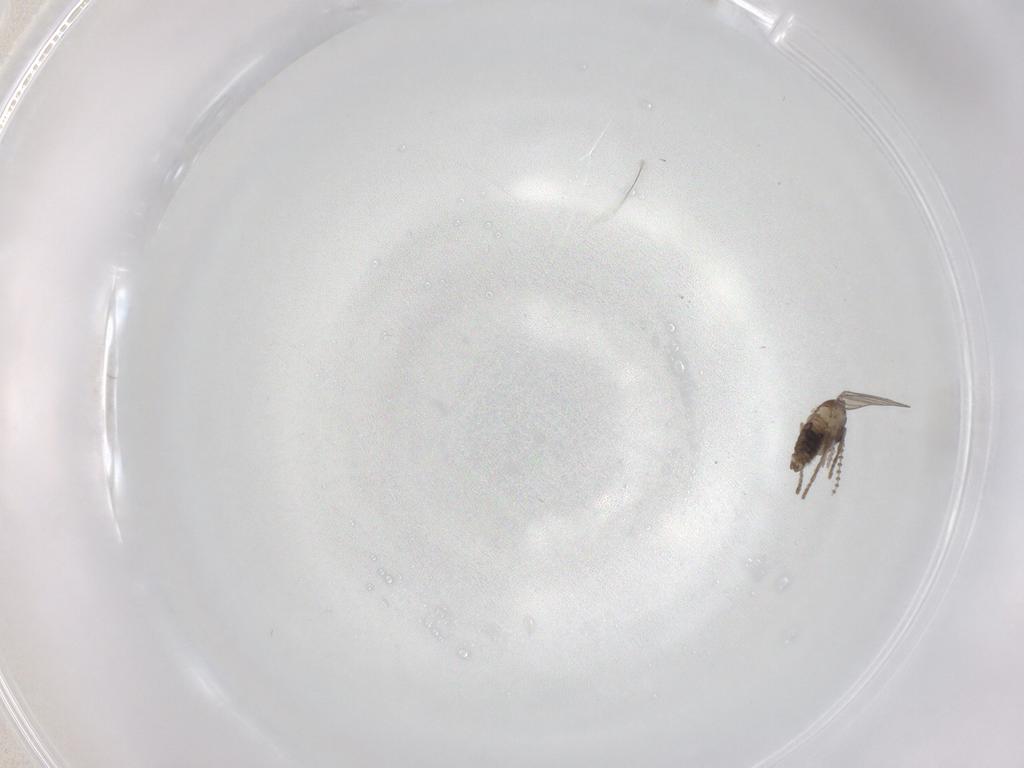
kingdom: Animalia
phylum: Arthropoda
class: Insecta
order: Diptera
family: Psychodidae
